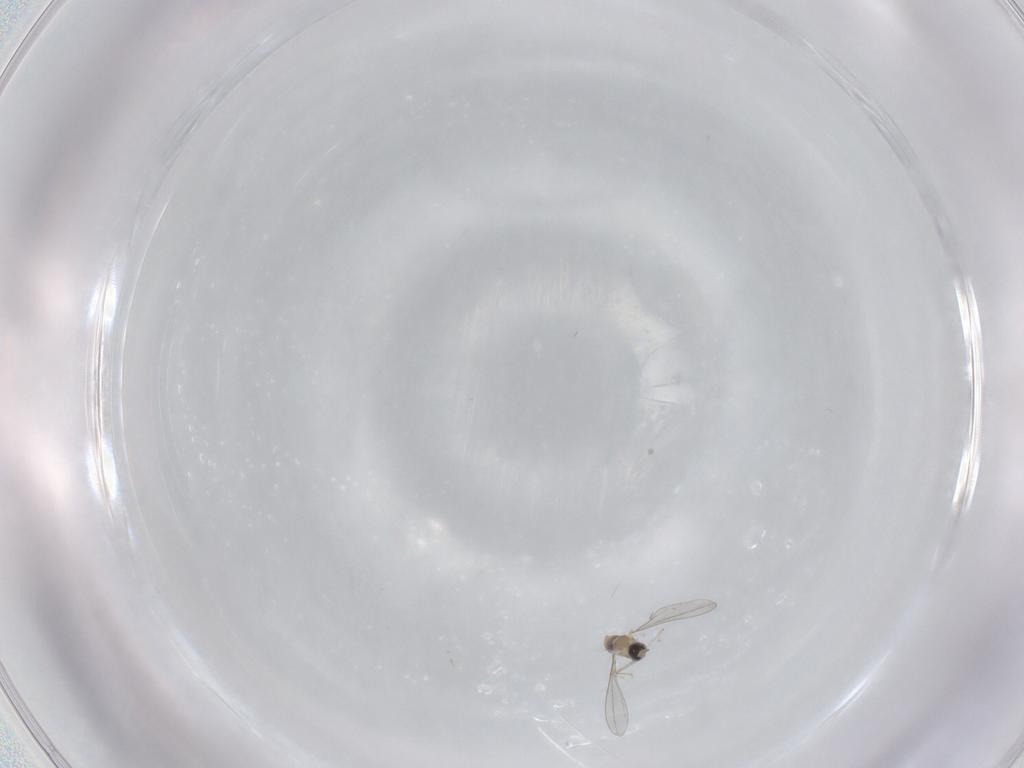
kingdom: Animalia
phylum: Arthropoda
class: Insecta
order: Diptera
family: Cecidomyiidae
